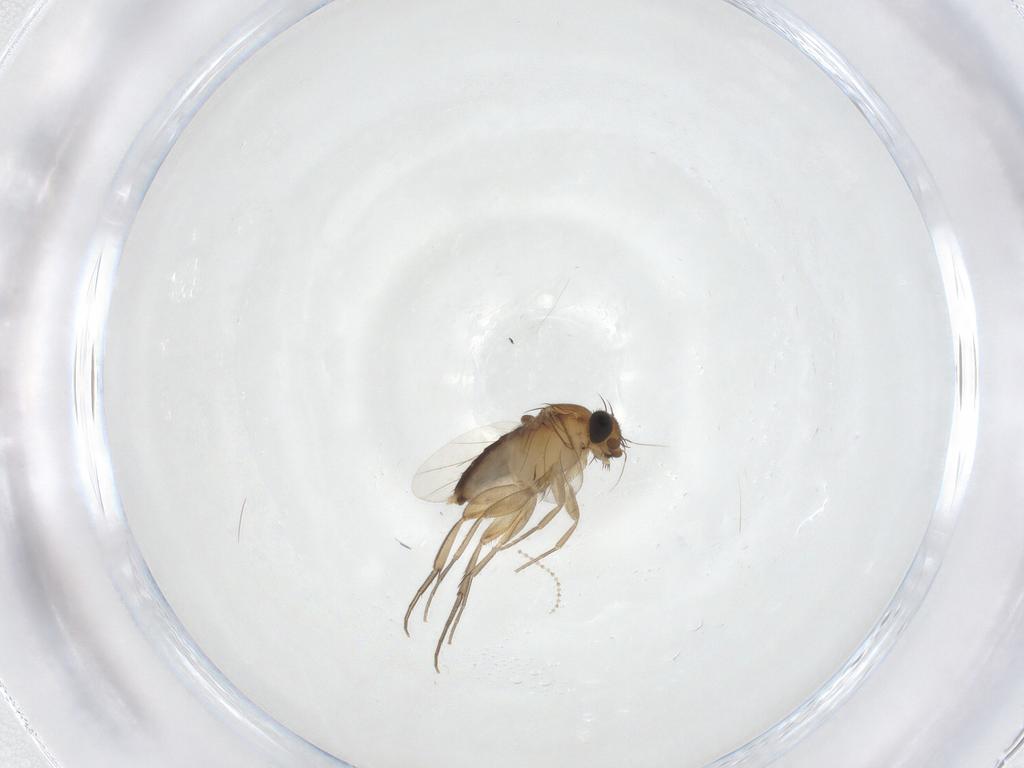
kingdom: Animalia
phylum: Arthropoda
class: Insecta
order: Diptera
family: Phoridae
